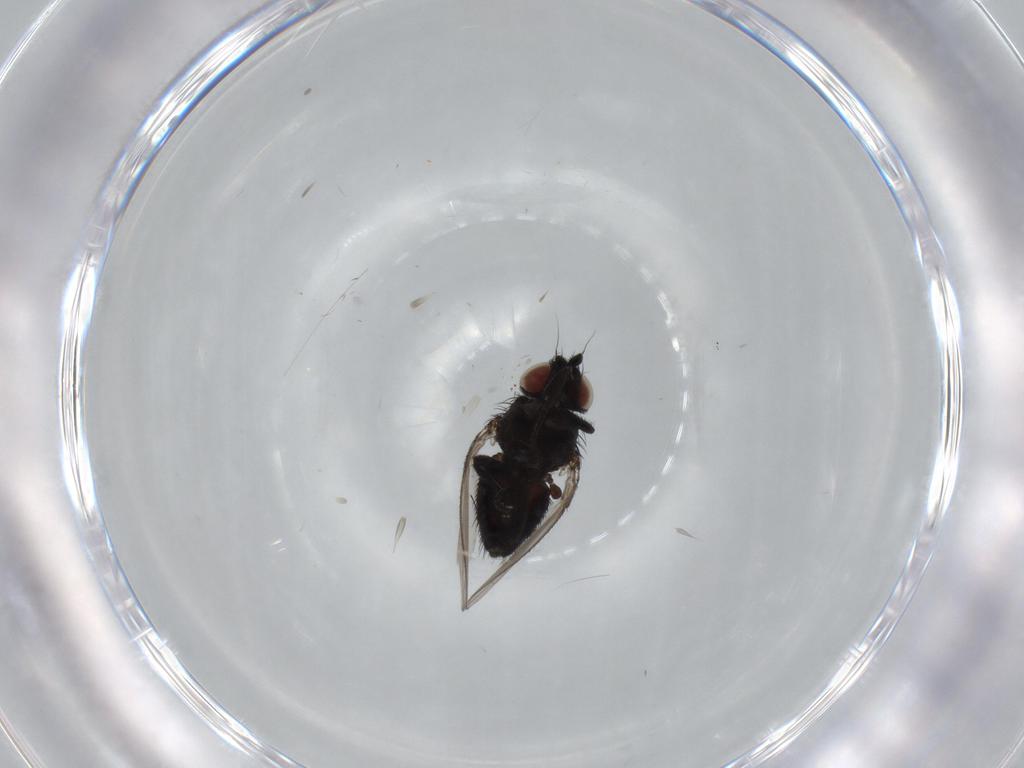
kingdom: Animalia
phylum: Arthropoda
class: Insecta
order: Diptera
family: Milichiidae
